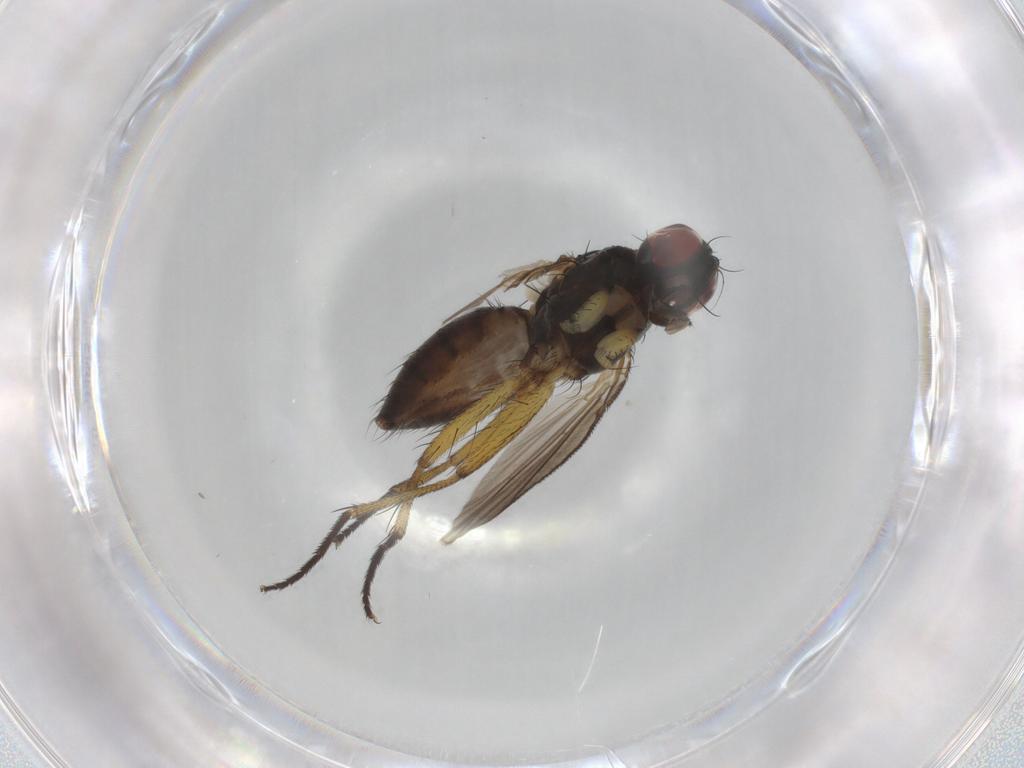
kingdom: Animalia
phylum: Arthropoda
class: Insecta
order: Diptera
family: Muscidae
